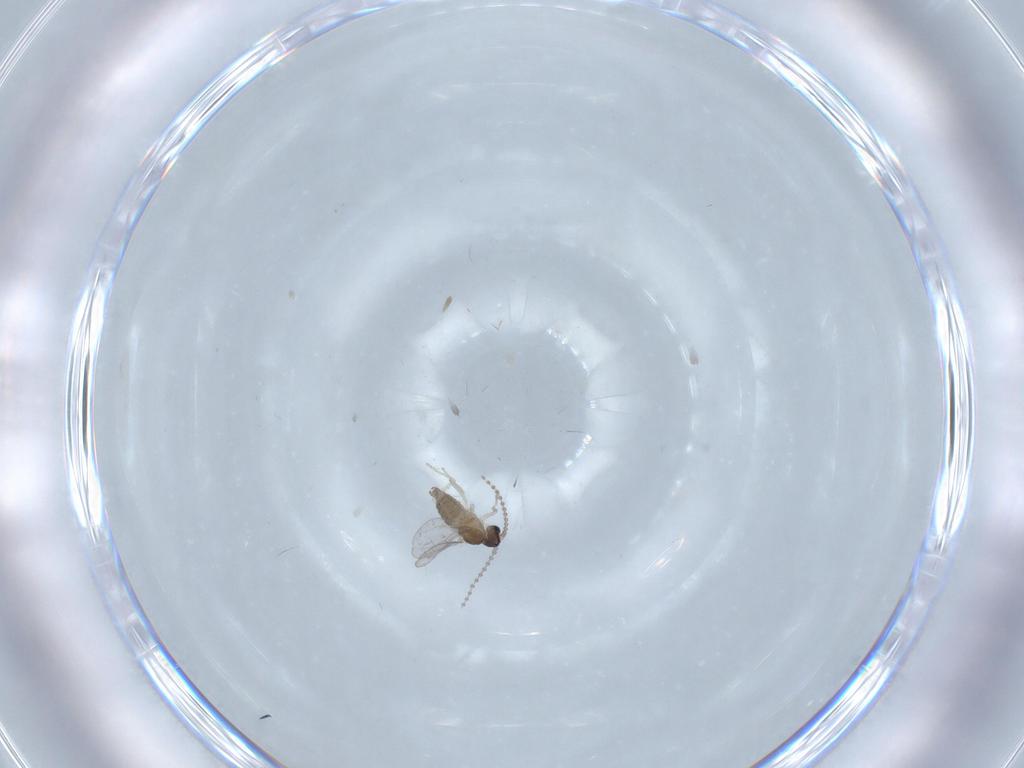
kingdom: Animalia
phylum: Arthropoda
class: Insecta
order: Diptera
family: Cecidomyiidae
